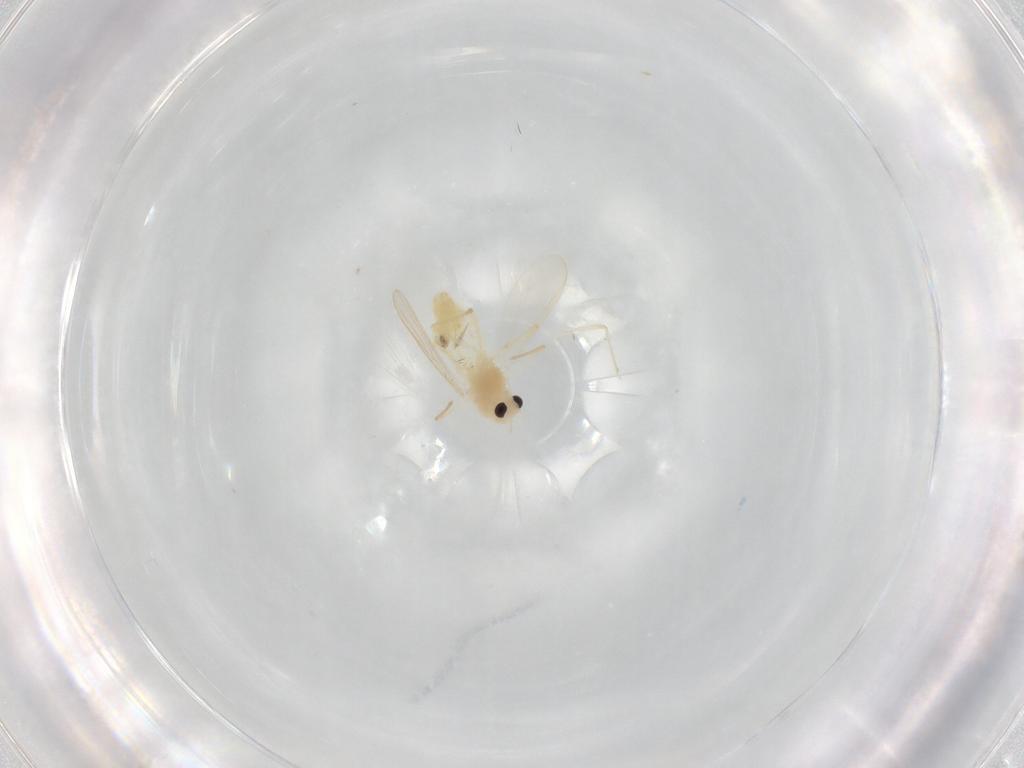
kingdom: Animalia
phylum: Arthropoda
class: Insecta
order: Diptera
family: Chironomidae
